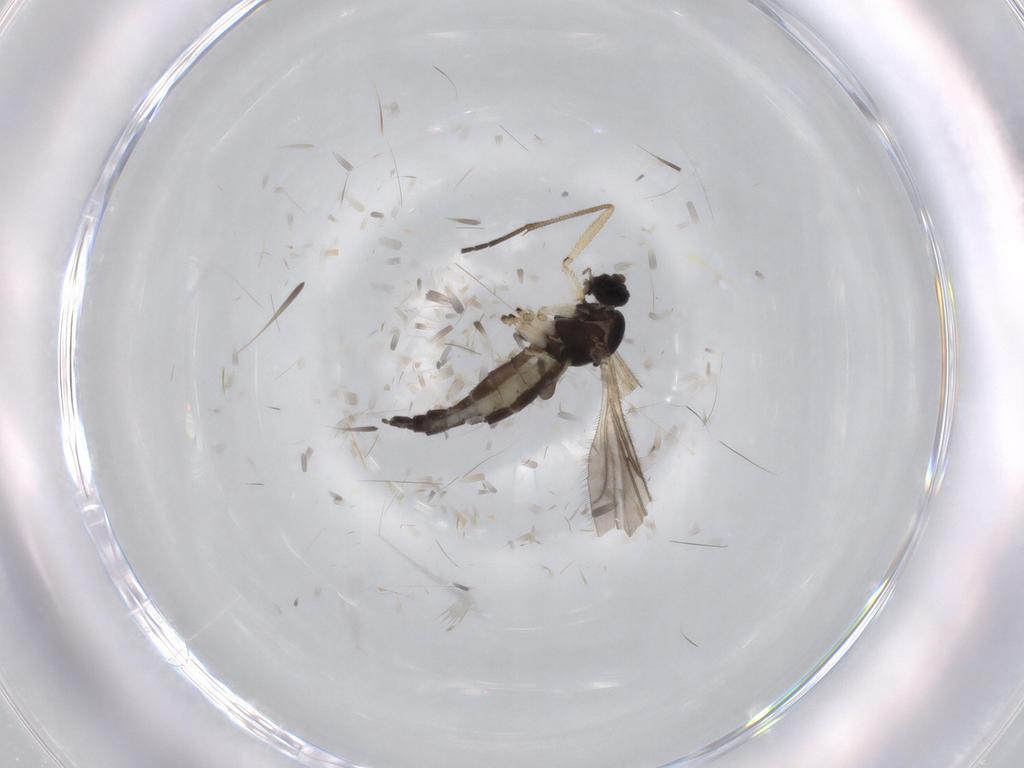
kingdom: Animalia
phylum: Arthropoda
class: Insecta
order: Diptera
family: Sciaridae
